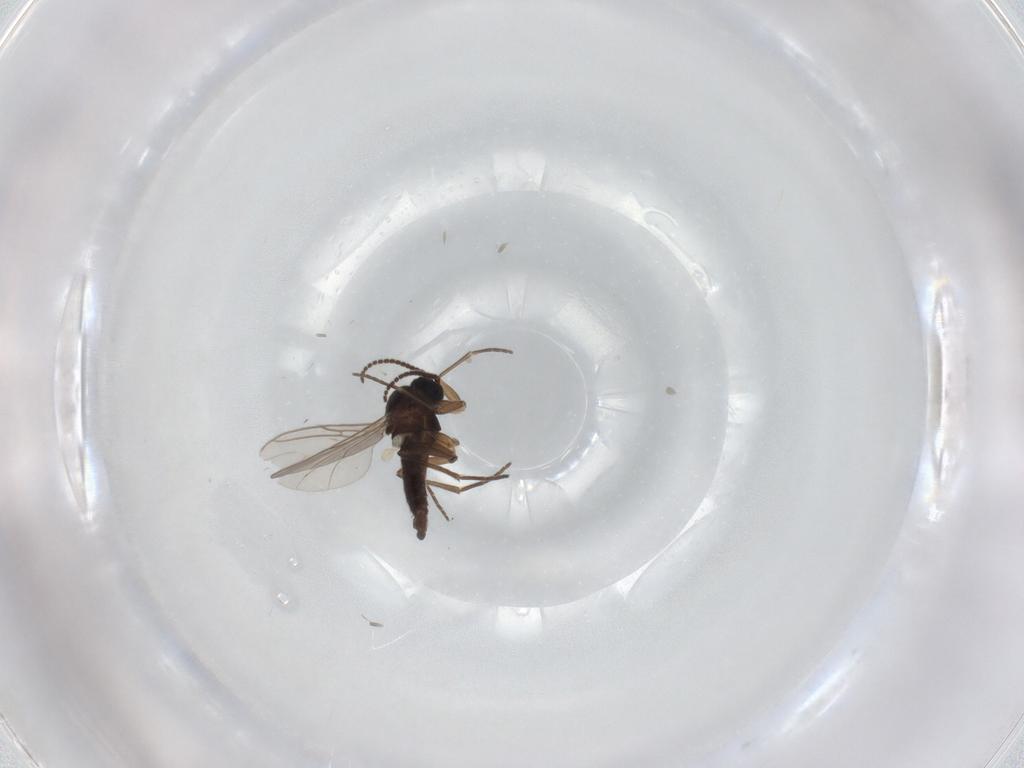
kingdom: Animalia
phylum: Arthropoda
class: Insecta
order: Diptera
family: Sciaridae
